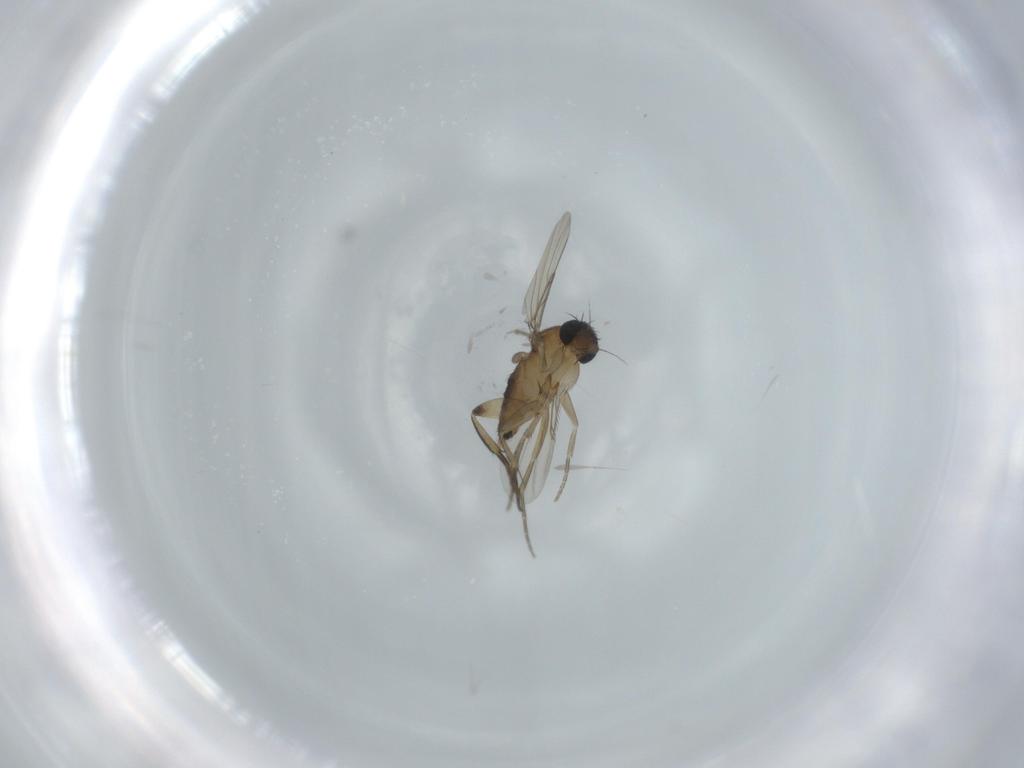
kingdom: Animalia
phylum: Arthropoda
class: Insecta
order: Diptera
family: Phoridae
